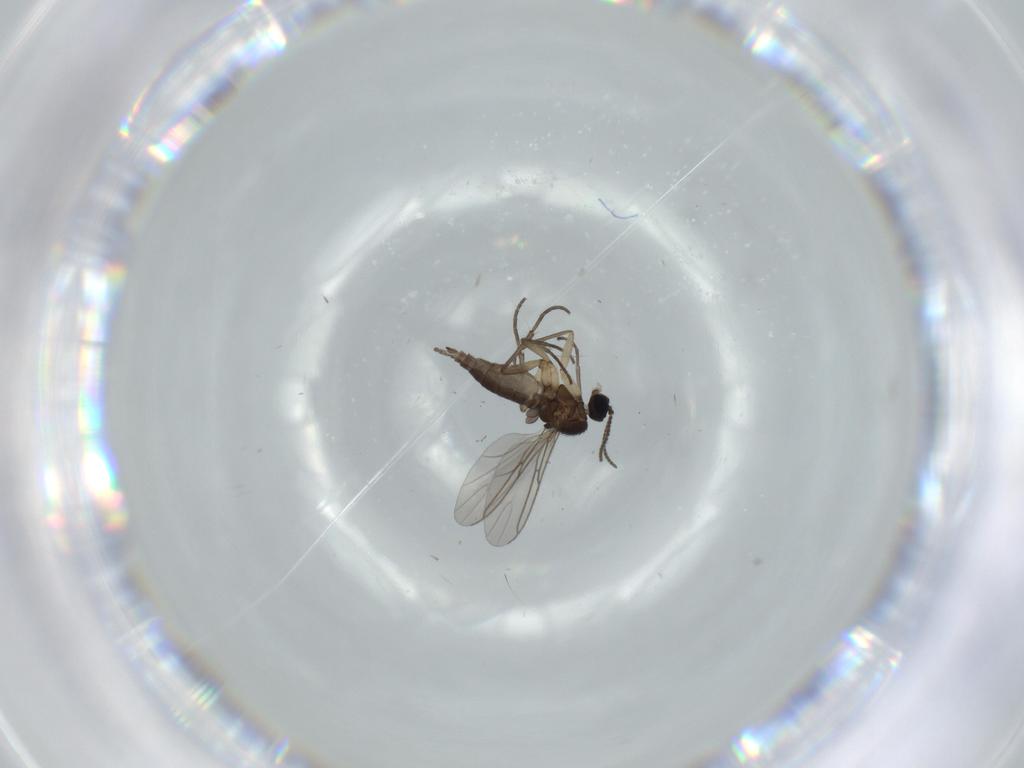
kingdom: Animalia
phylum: Arthropoda
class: Insecta
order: Diptera
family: Sciaridae
